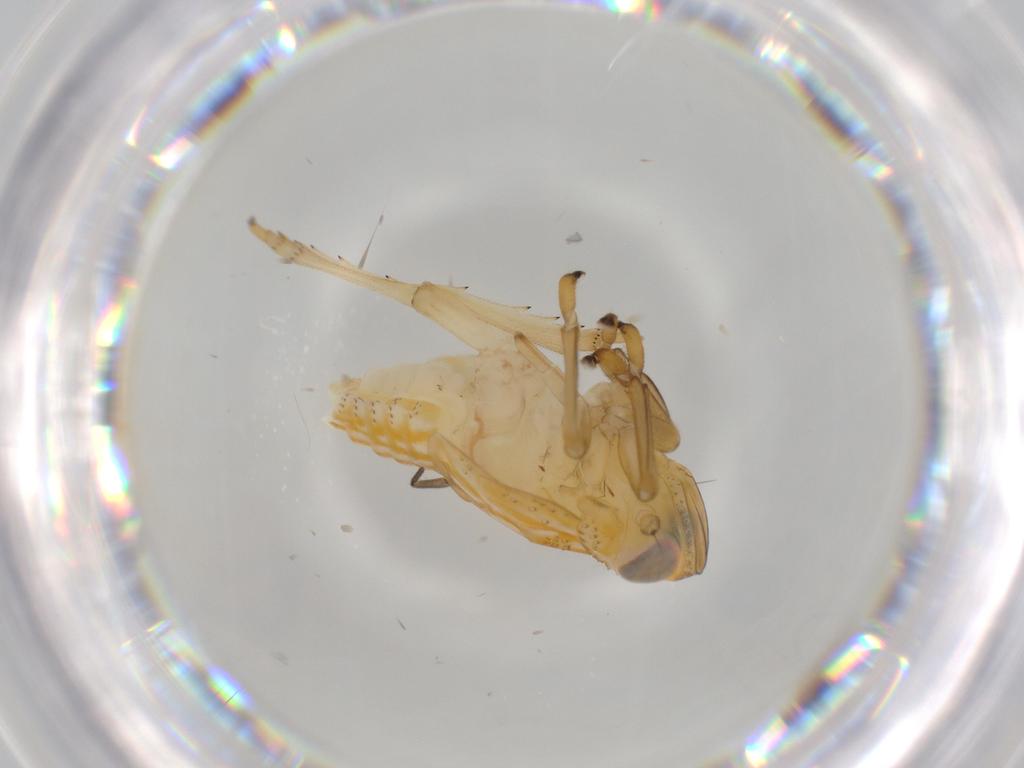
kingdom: Animalia
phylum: Arthropoda
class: Insecta
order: Hemiptera
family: Issidae
